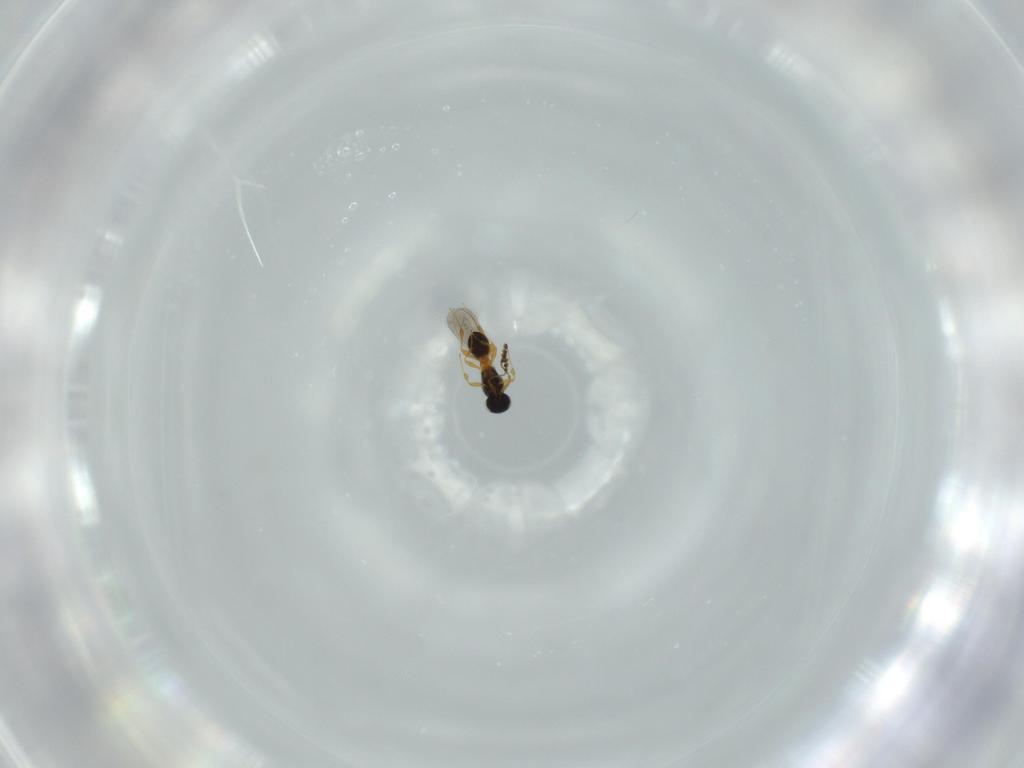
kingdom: Animalia
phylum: Arthropoda
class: Insecta
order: Hymenoptera
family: Platygastridae
